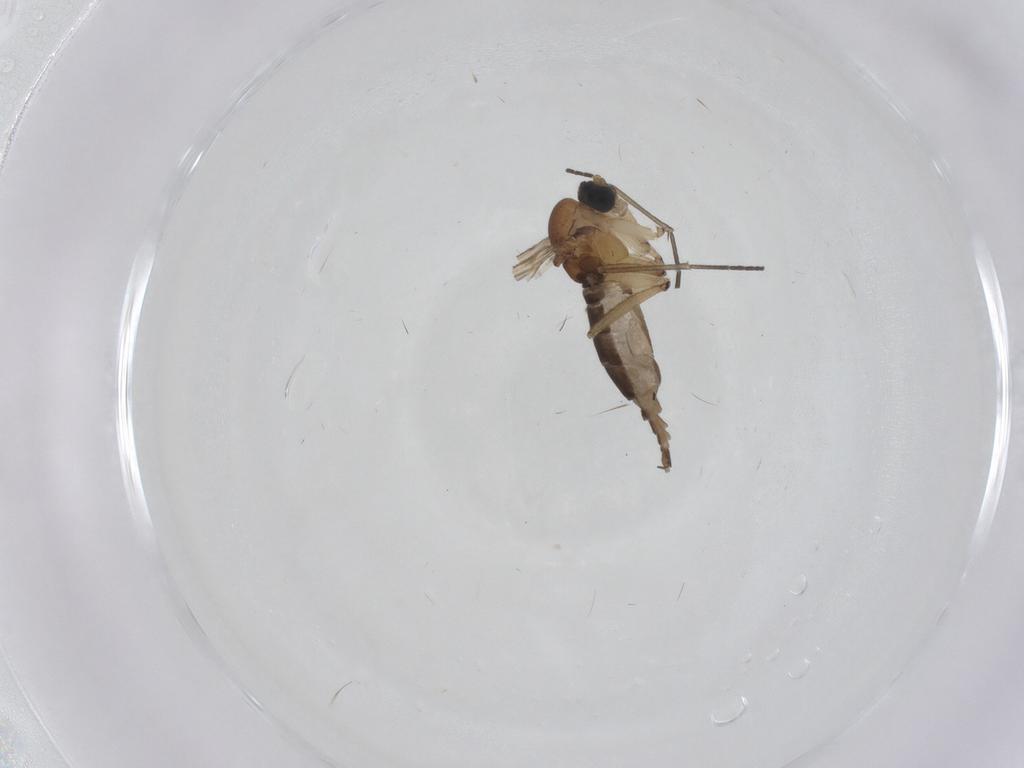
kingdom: Animalia
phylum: Arthropoda
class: Insecta
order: Diptera
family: Sciaridae
